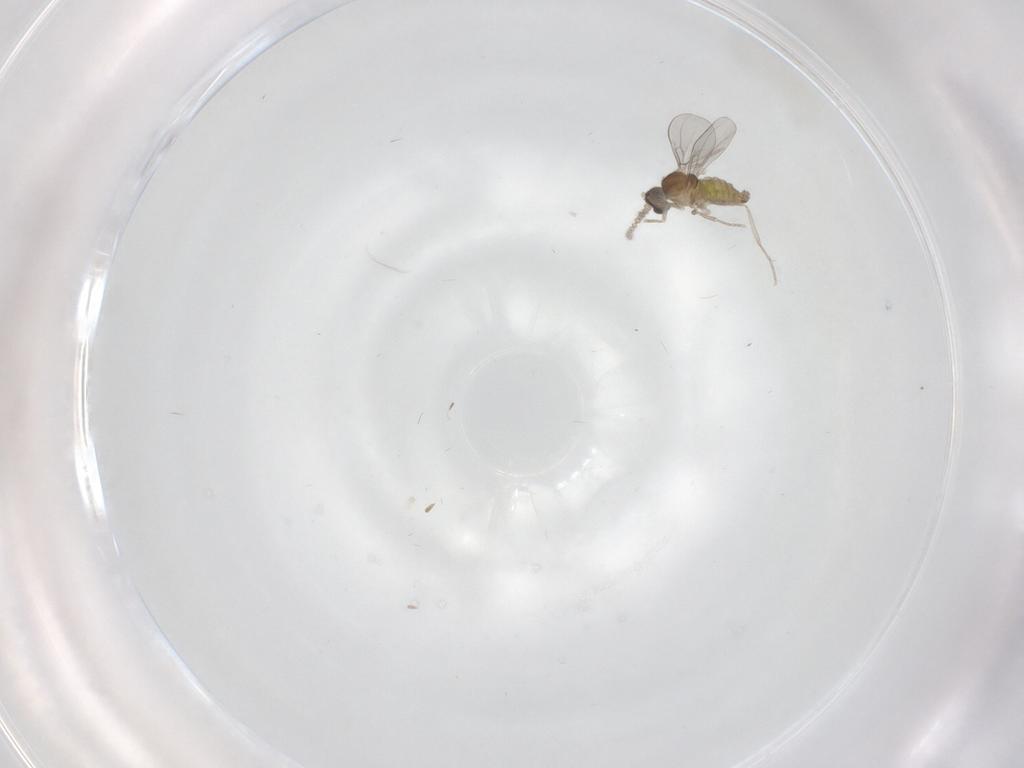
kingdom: Animalia
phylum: Arthropoda
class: Insecta
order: Diptera
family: Cecidomyiidae
